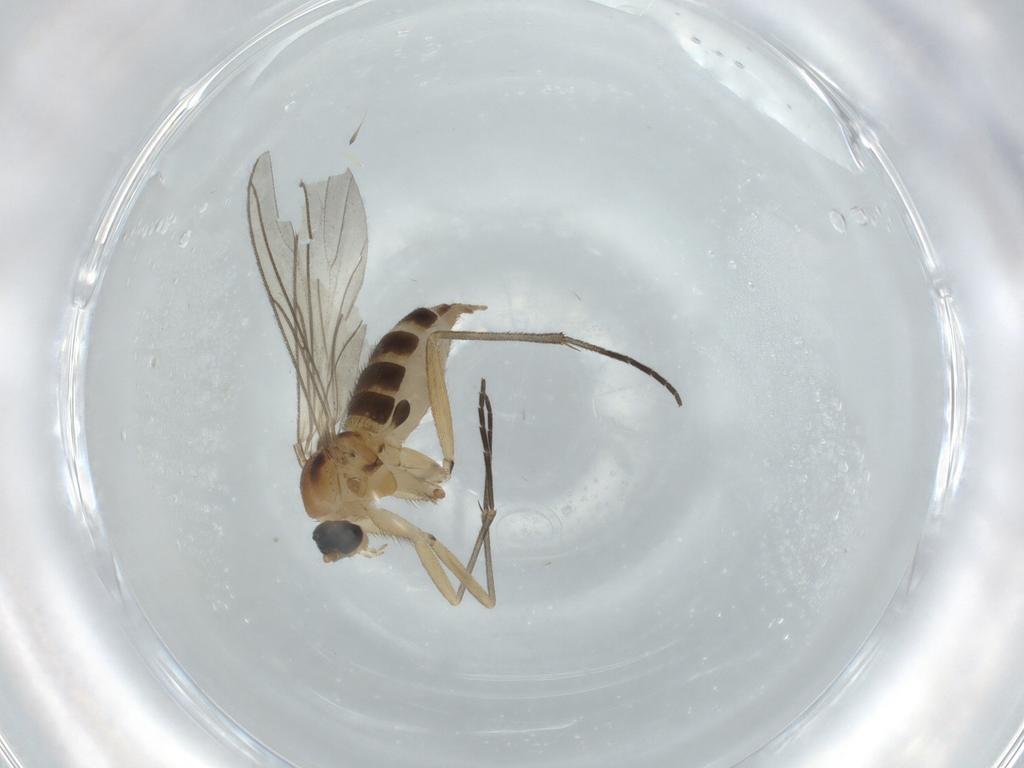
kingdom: Animalia
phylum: Arthropoda
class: Insecta
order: Diptera
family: Sciaridae
